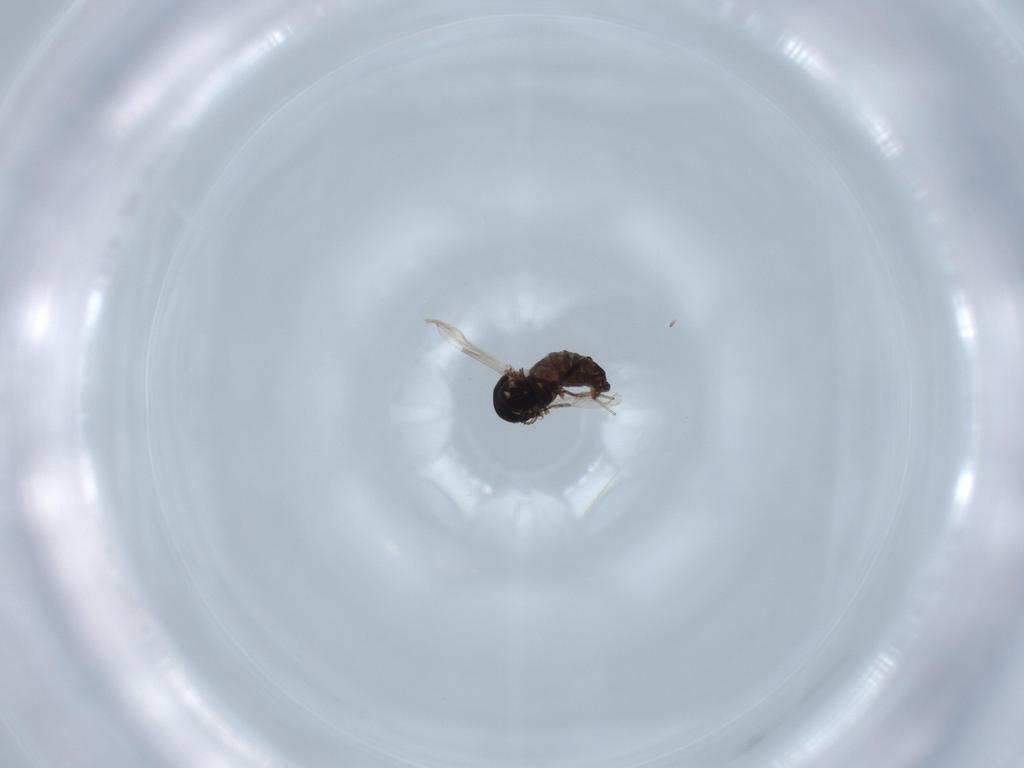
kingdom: Animalia
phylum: Arthropoda
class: Insecta
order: Diptera
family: Ceratopogonidae
